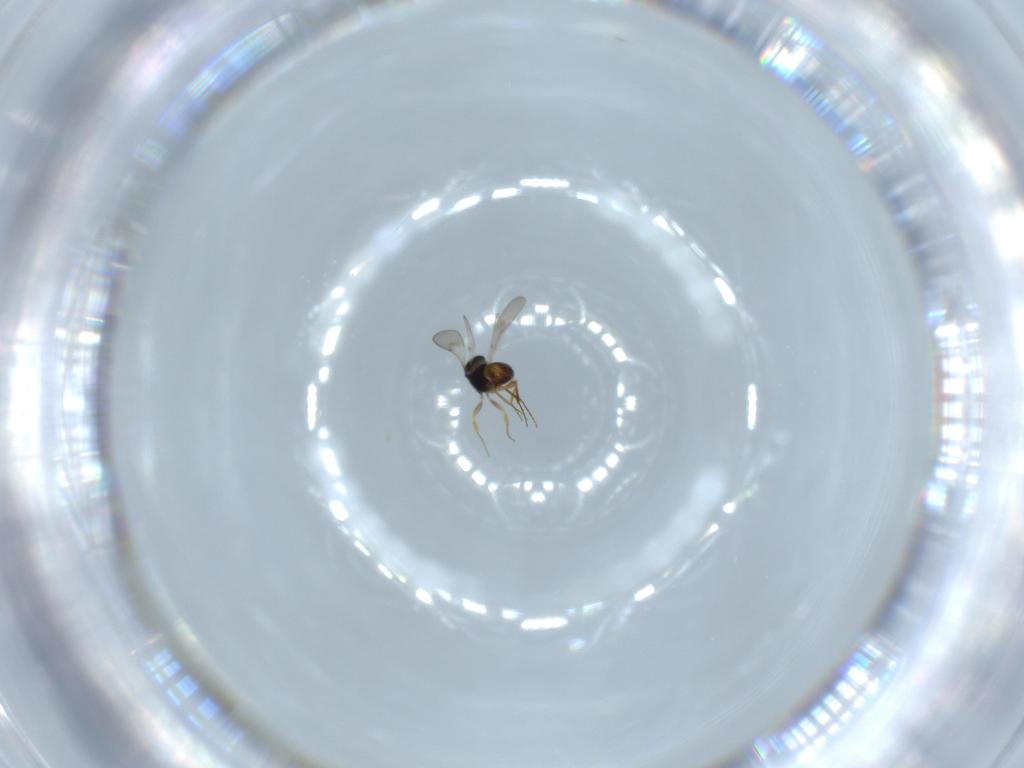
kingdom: Animalia
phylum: Arthropoda
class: Insecta
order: Hymenoptera
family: Scelionidae
